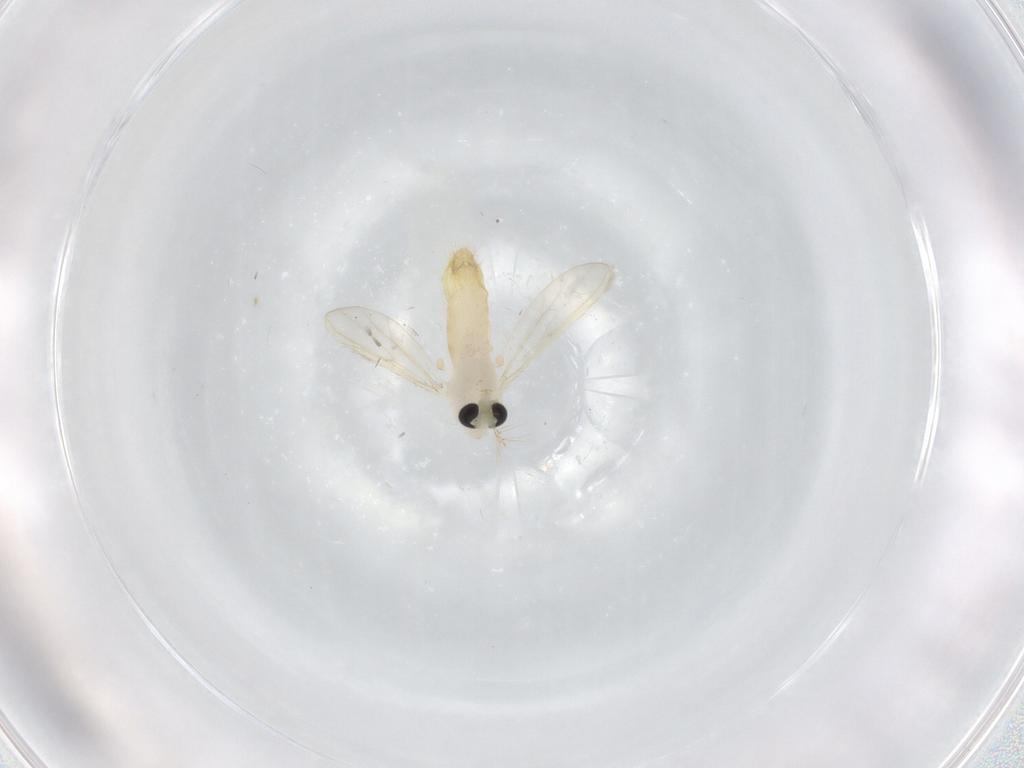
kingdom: Animalia
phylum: Arthropoda
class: Insecta
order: Diptera
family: Chironomidae
